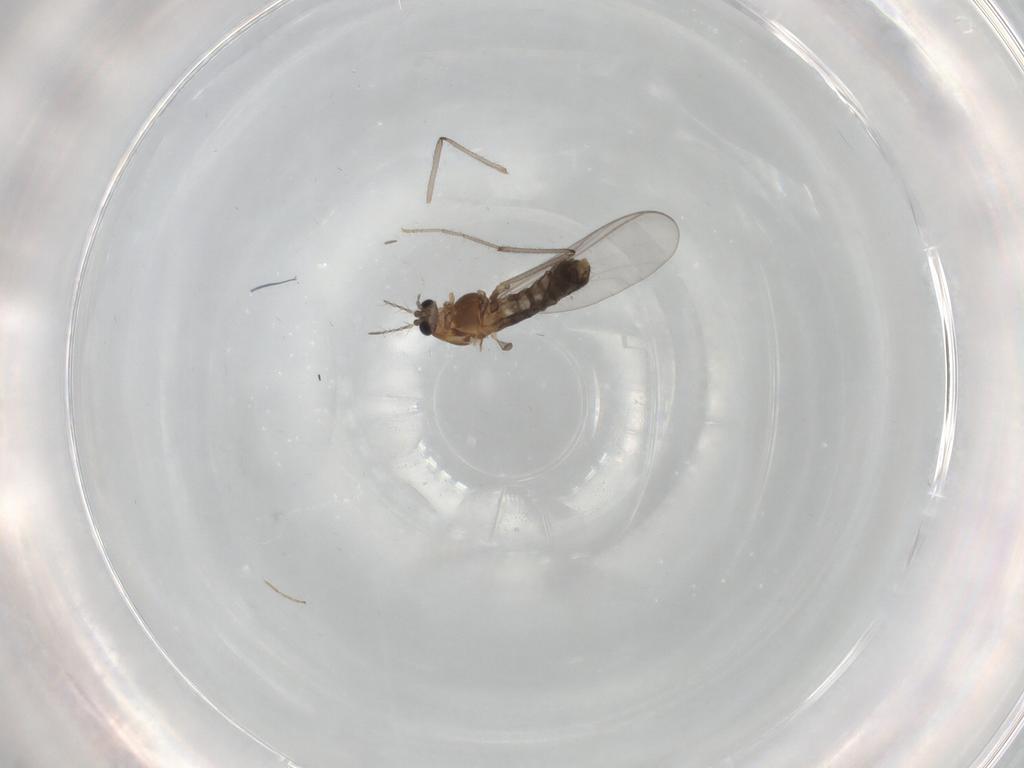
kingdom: Animalia
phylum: Arthropoda
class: Insecta
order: Diptera
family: Chironomidae
